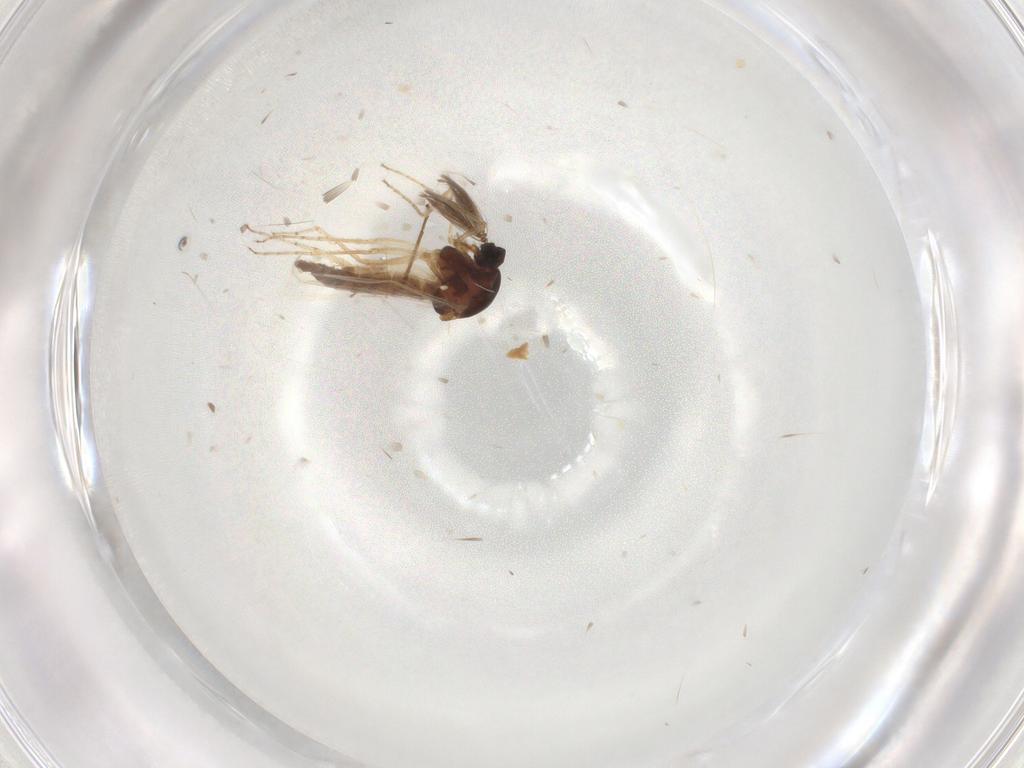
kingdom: Animalia
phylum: Arthropoda
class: Insecta
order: Diptera
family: Ceratopogonidae
